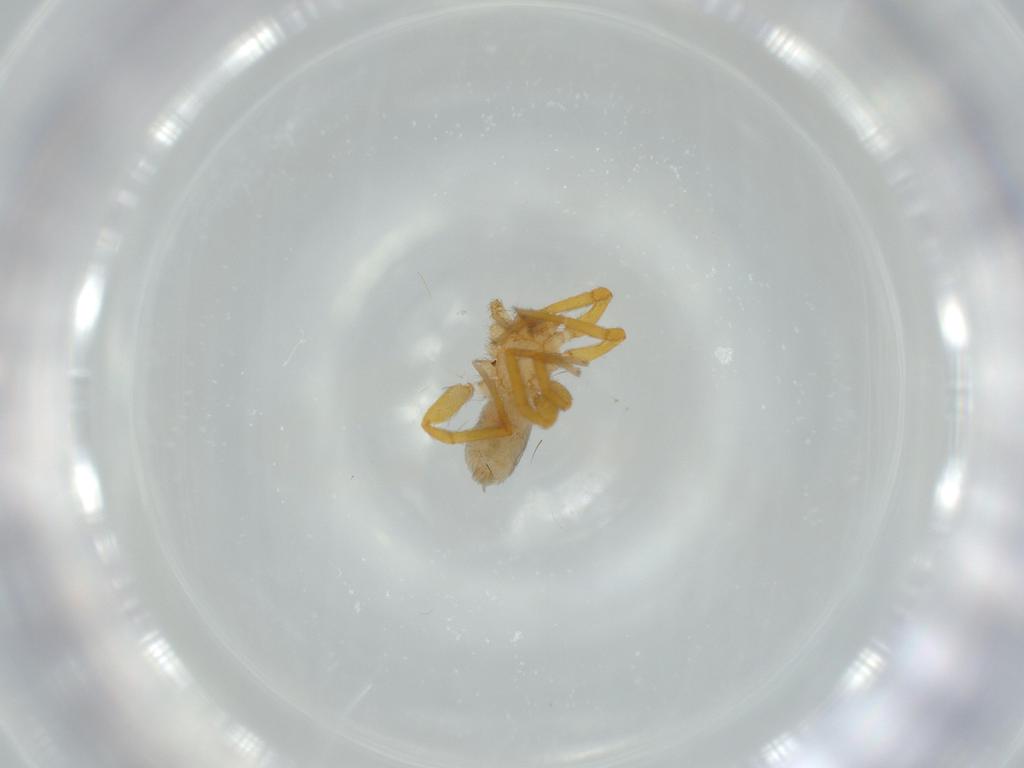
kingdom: Animalia
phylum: Arthropoda
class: Arachnida
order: Araneae
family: Oonopidae
